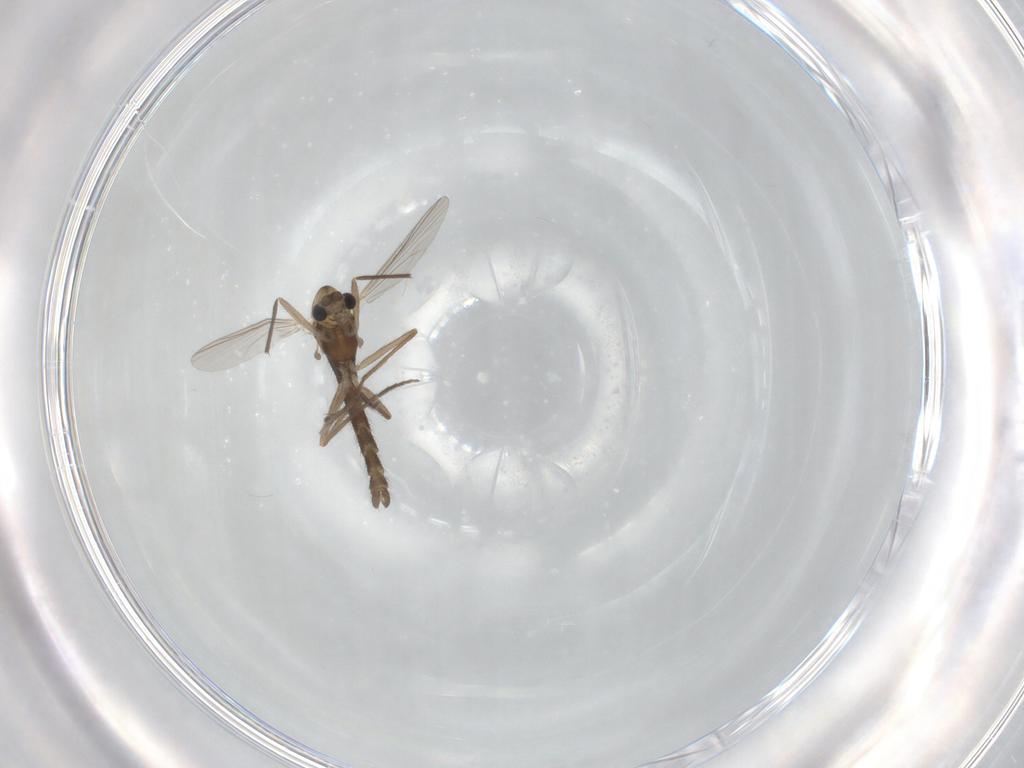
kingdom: Animalia
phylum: Arthropoda
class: Insecta
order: Diptera
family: Chironomidae
